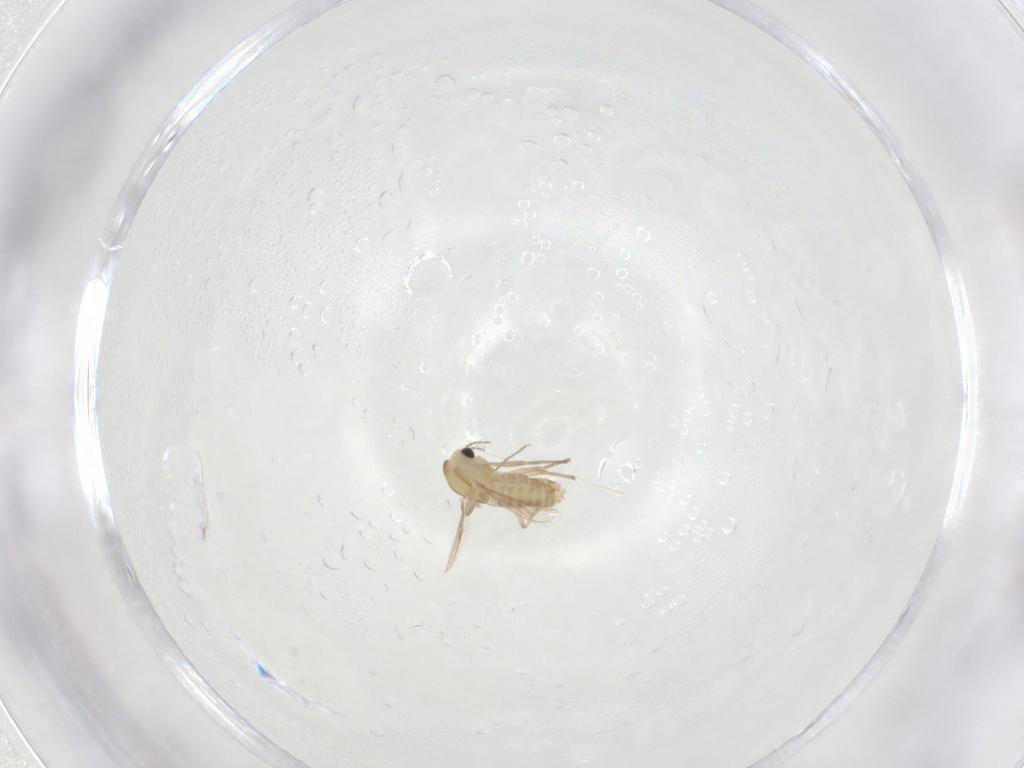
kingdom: Animalia
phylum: Arthropoda
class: Insecta
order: Diptera
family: Chironomidae
